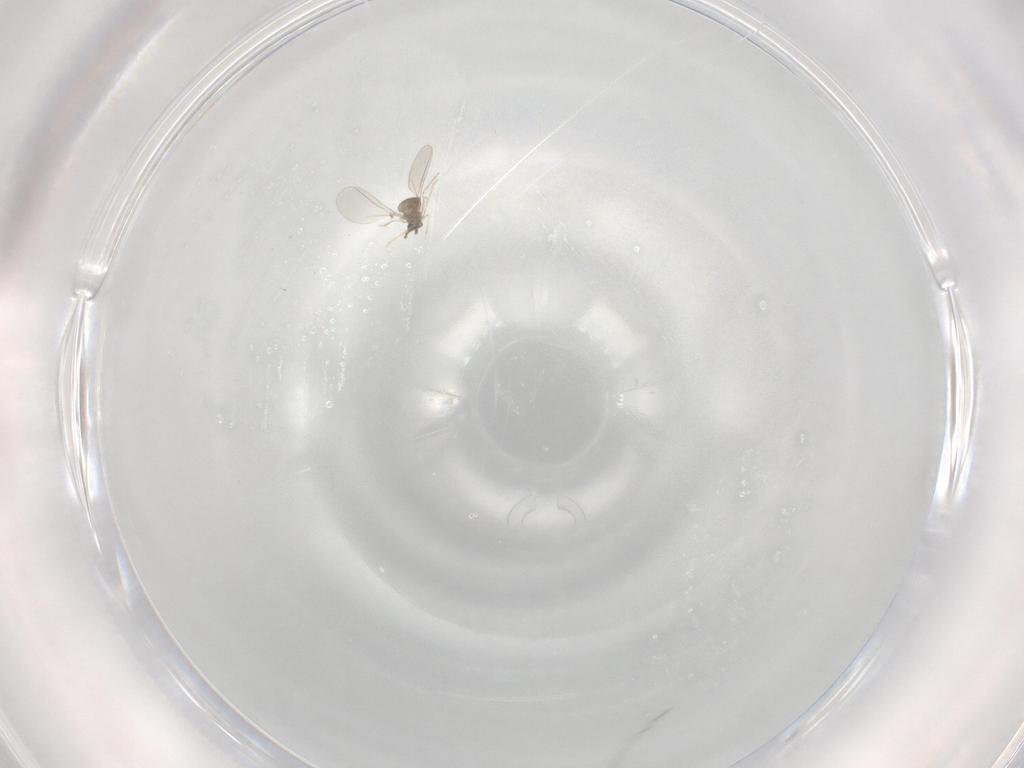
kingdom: Animalia
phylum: Arthropoda
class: Insecta
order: Diptera
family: Cecidomyiidae
